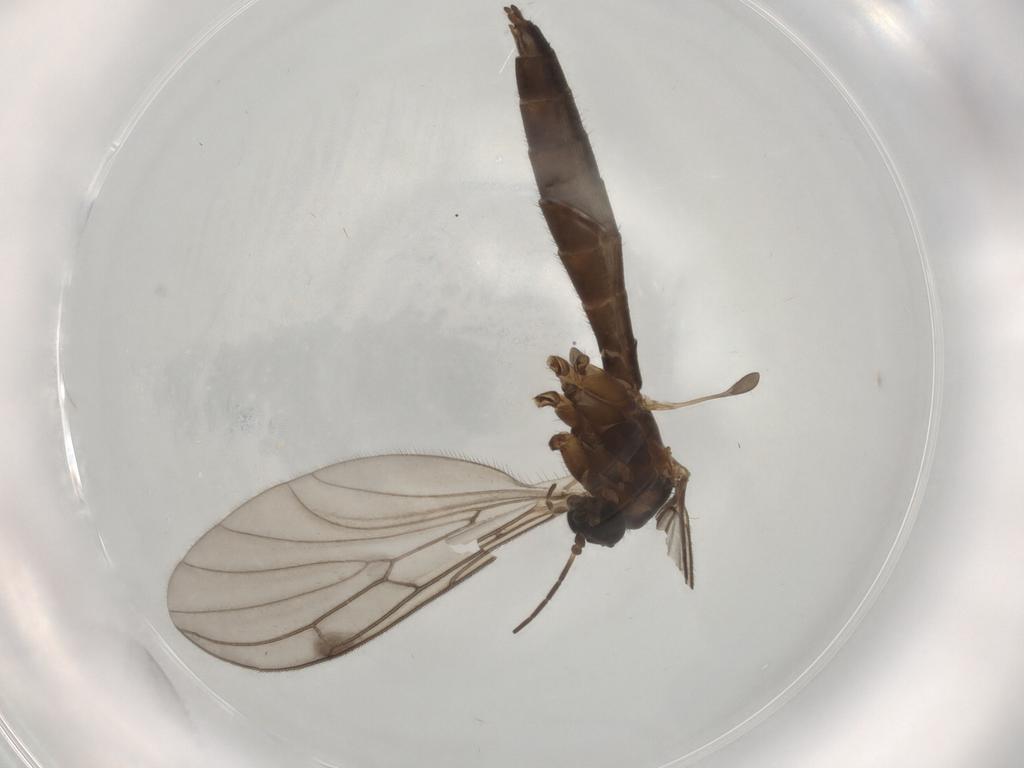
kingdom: Animalia
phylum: Arthropoda
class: Insecta
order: Diptera
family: Bolitophilidae
